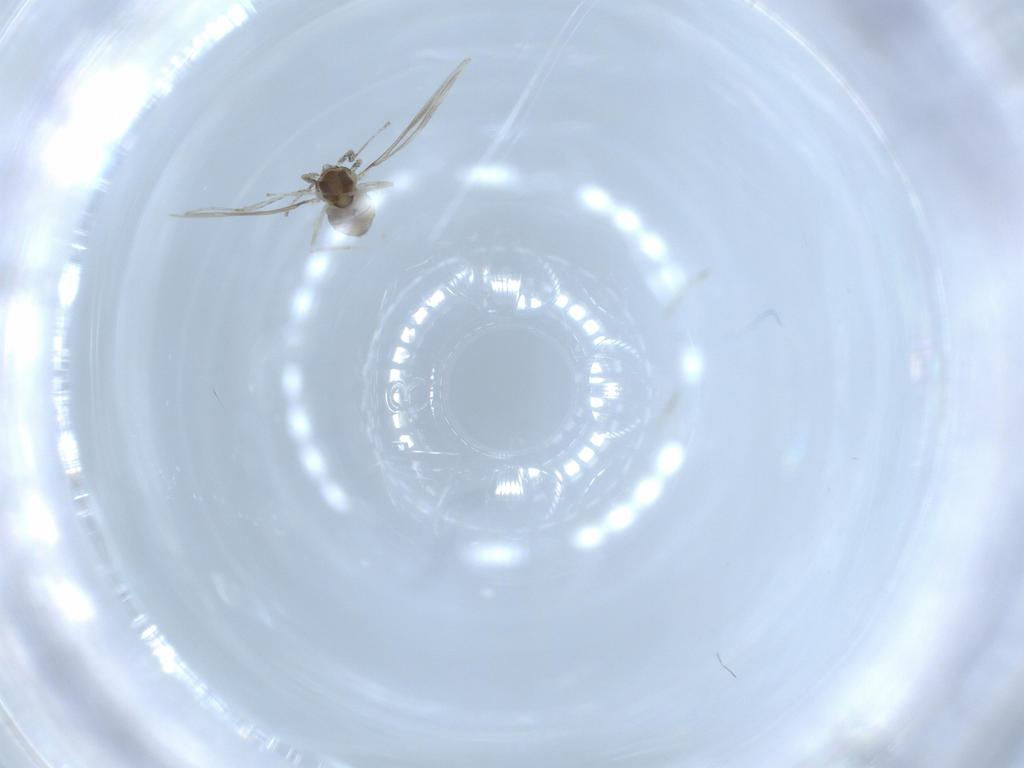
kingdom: Animalia
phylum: Arthropoda
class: Insecta
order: Diptera
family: Cecidomyiidae
